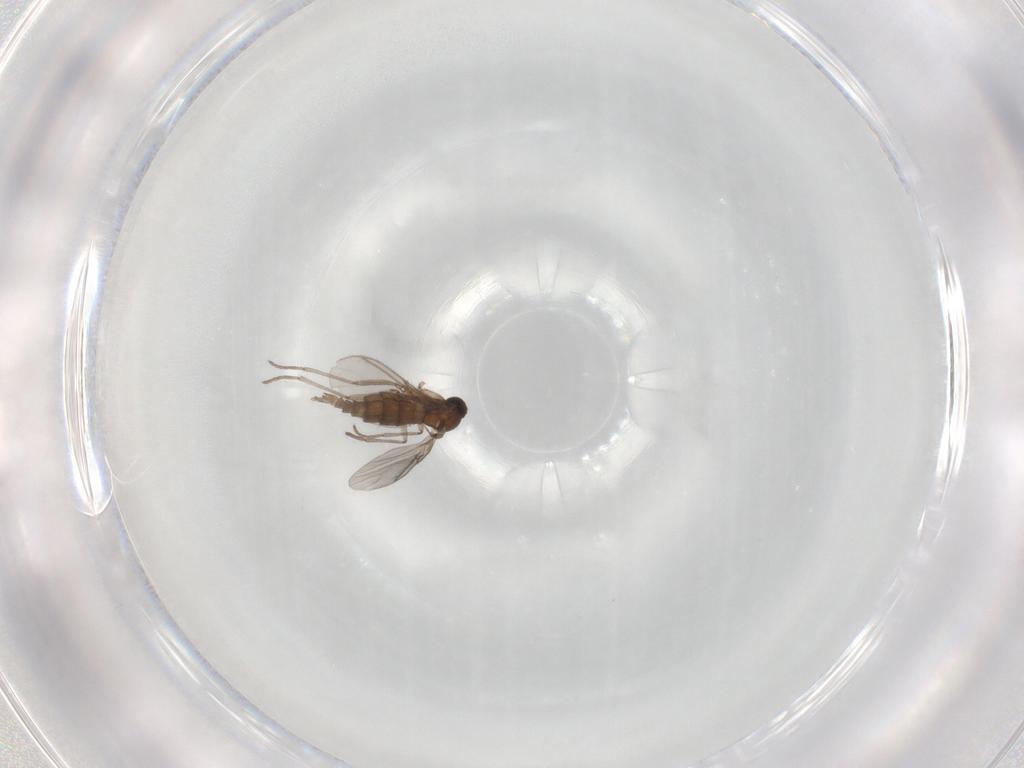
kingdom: Animalia
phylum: Arthropoda
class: Insecta
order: Diptera
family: Sciaridae
